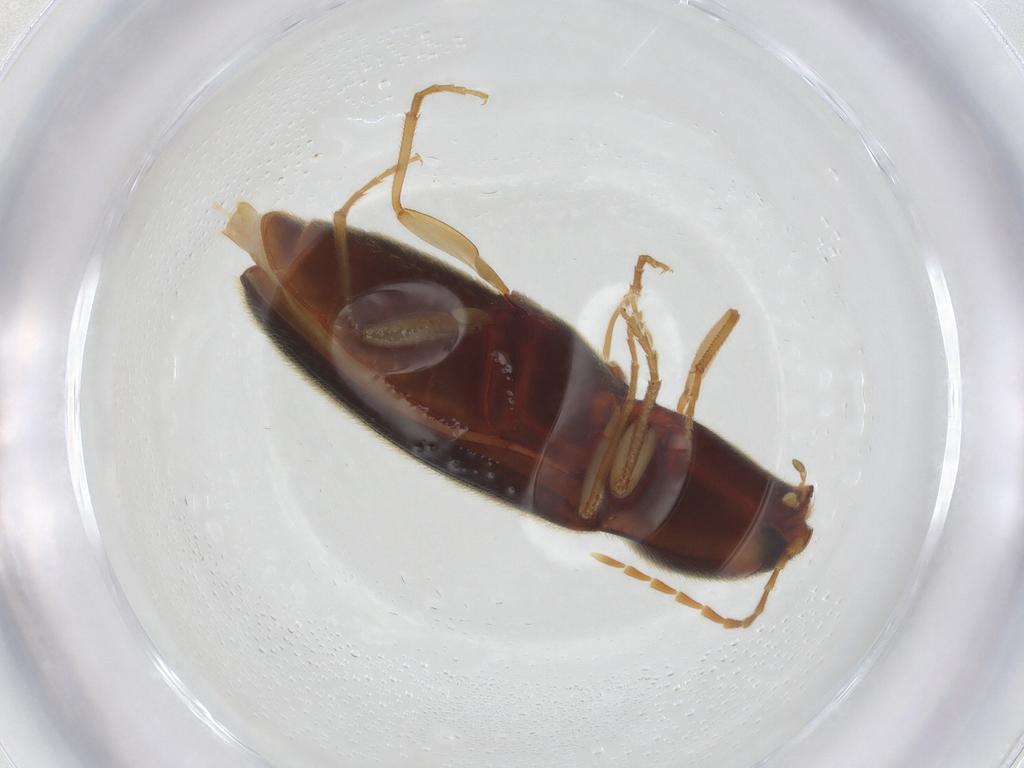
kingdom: Animalia
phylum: Arthropoda
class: Insecta
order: Coleoptera
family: Elateridae
